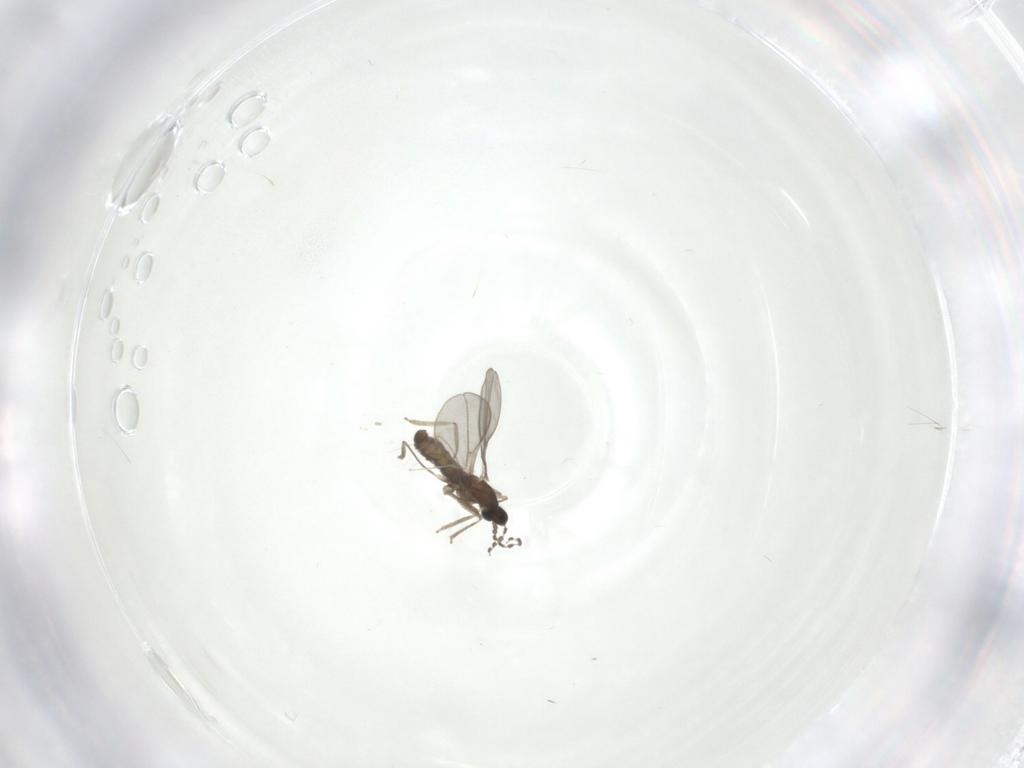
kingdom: Animalia
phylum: Arthropoda
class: Insecta
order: Diptera
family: Cecidomyiidae
